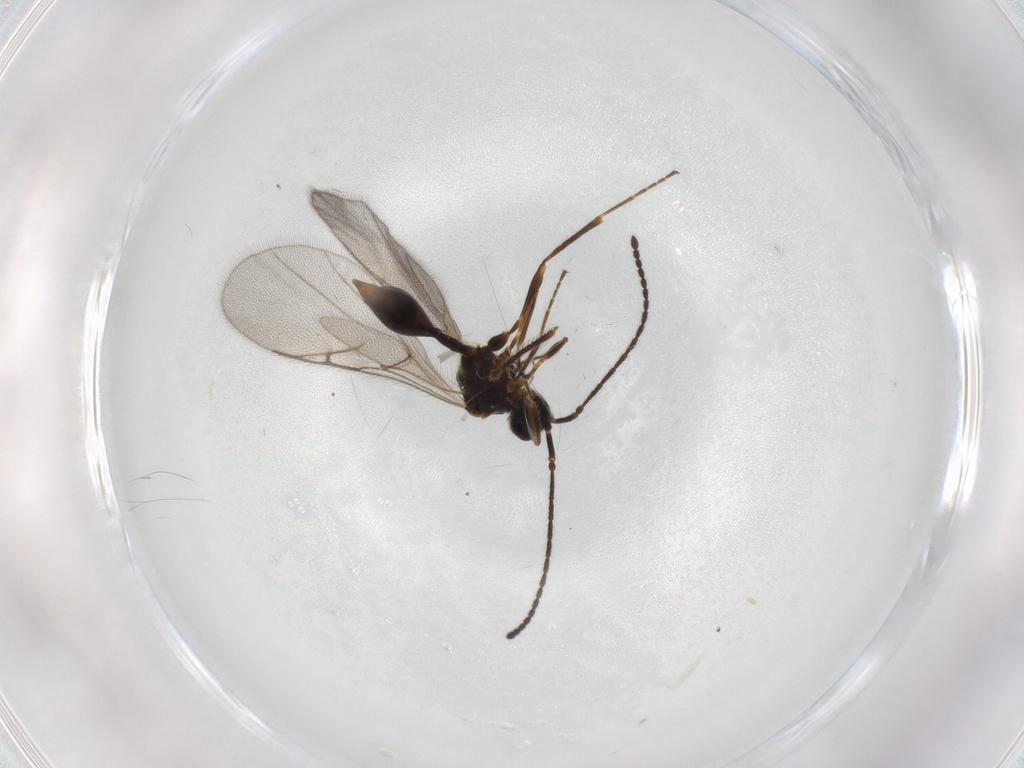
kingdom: Animalia
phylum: Arthropoda
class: Insecta
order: Hymenoptera
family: Proctotrupidae
